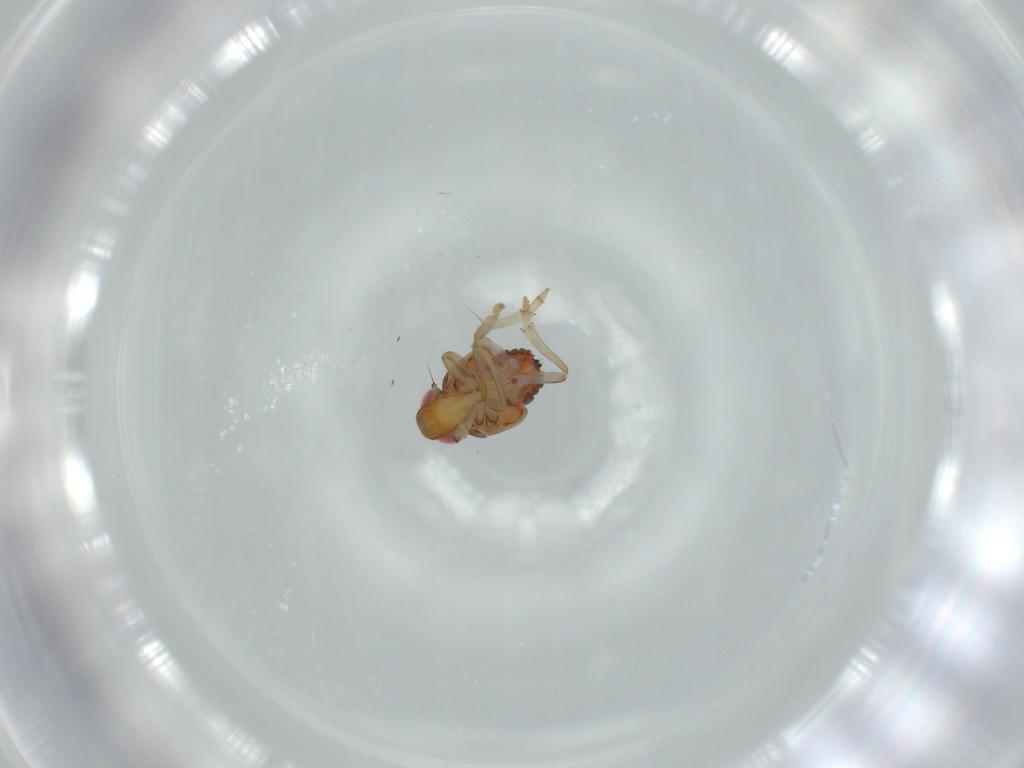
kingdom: Animalia
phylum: Arthropoda
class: Insecta
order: Hemiptera
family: Issidae
